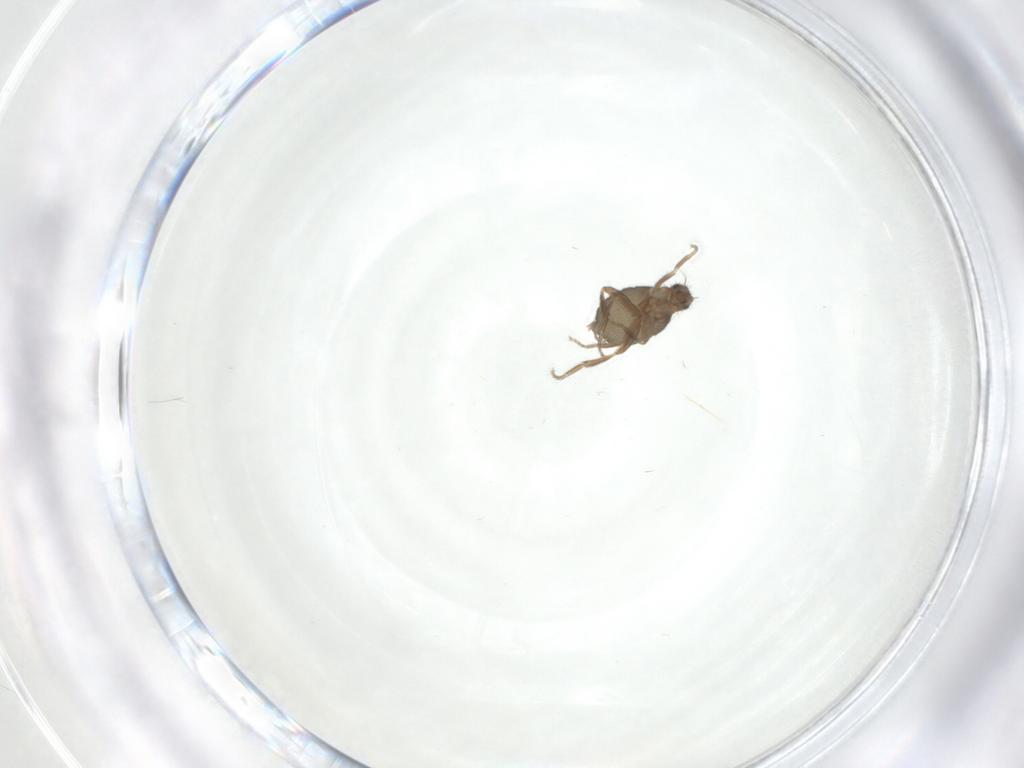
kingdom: Animalia
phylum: Arthropoda
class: Insecta
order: Diptera
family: Phoridae
